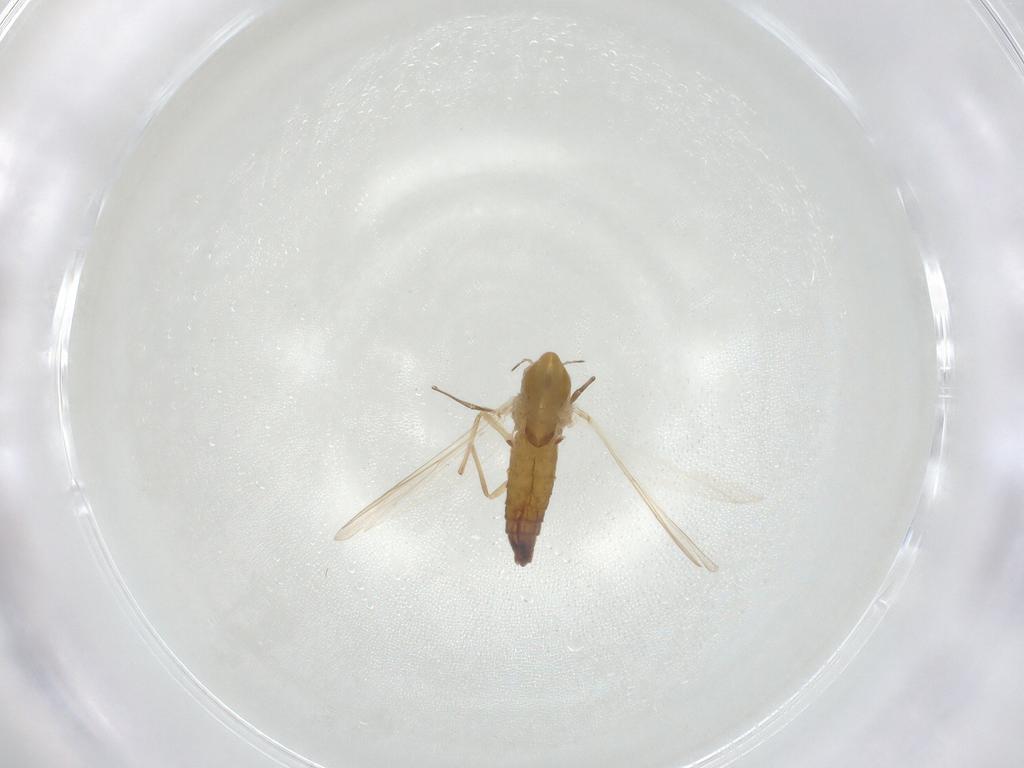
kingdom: Animalia
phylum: Arthropoda
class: Insecta
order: Diptera
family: Chironomidae
